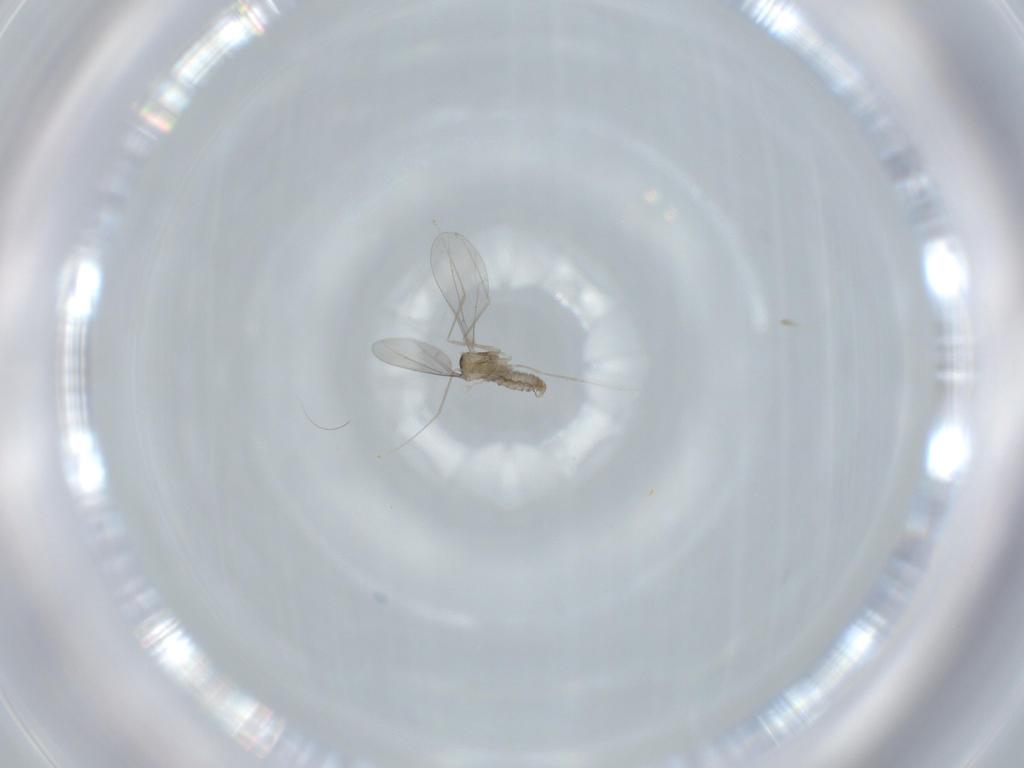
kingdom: Animalia
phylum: Arthropoda
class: Insecta
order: Diptera
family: Cecidomyiidae
